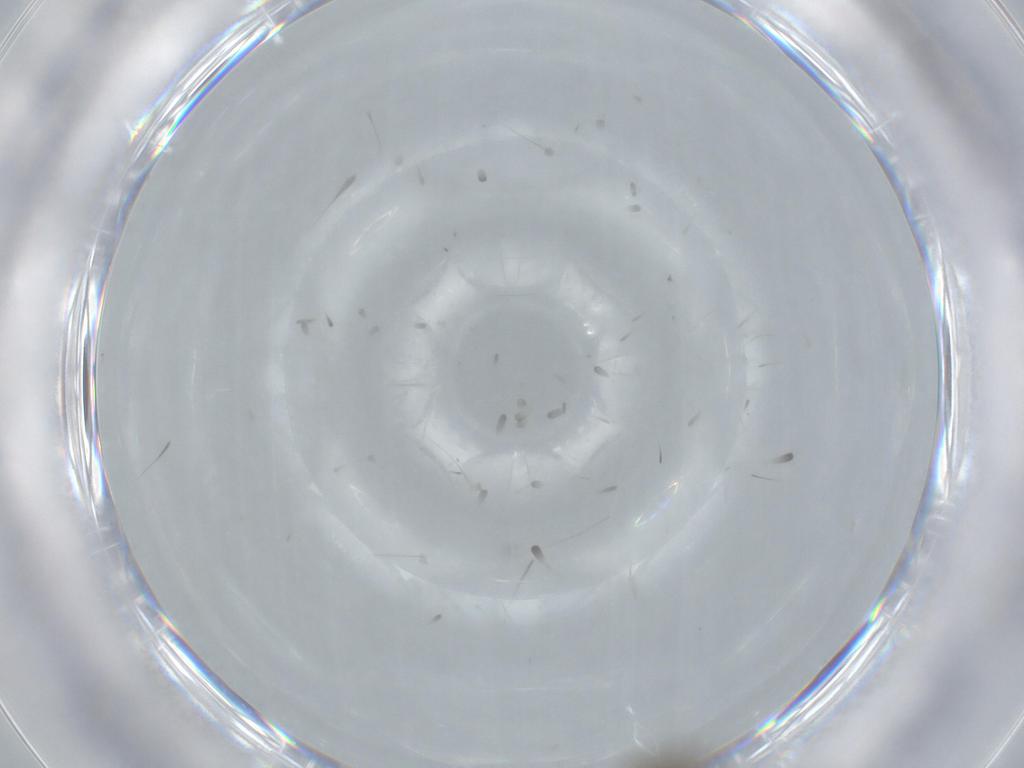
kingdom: Animalia
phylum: Arthropoda
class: Insecta
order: Diptera
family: Phoridae
